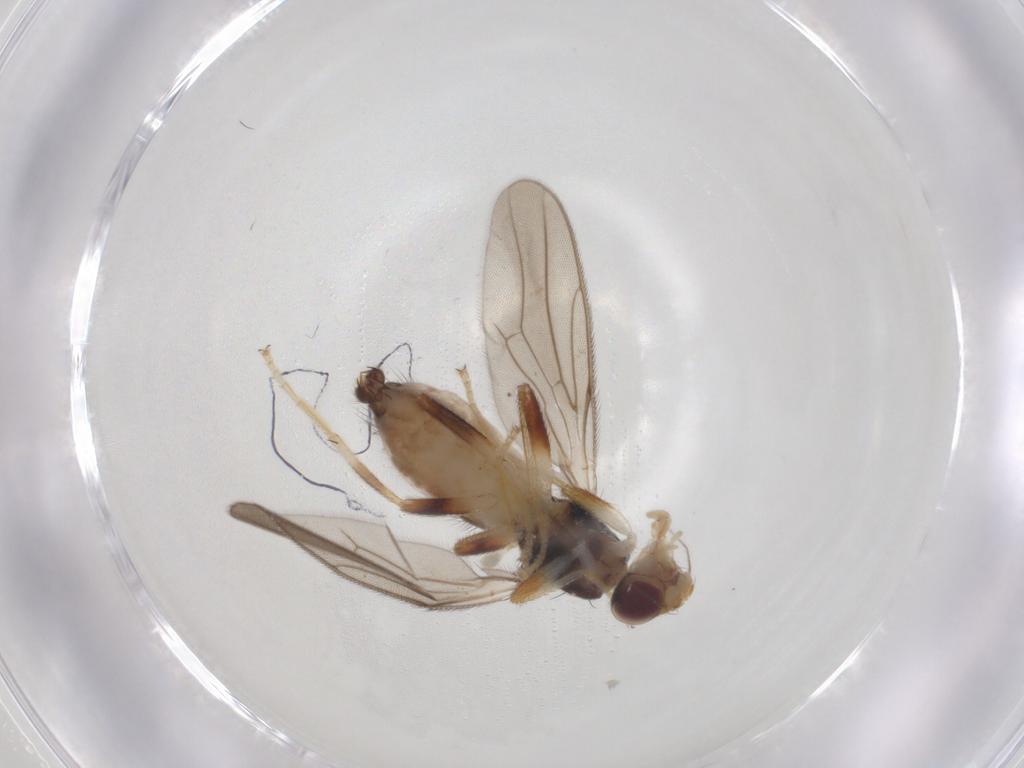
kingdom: Animalia
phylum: Arthropoda
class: Insecta
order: Diptera
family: Chloropidae
